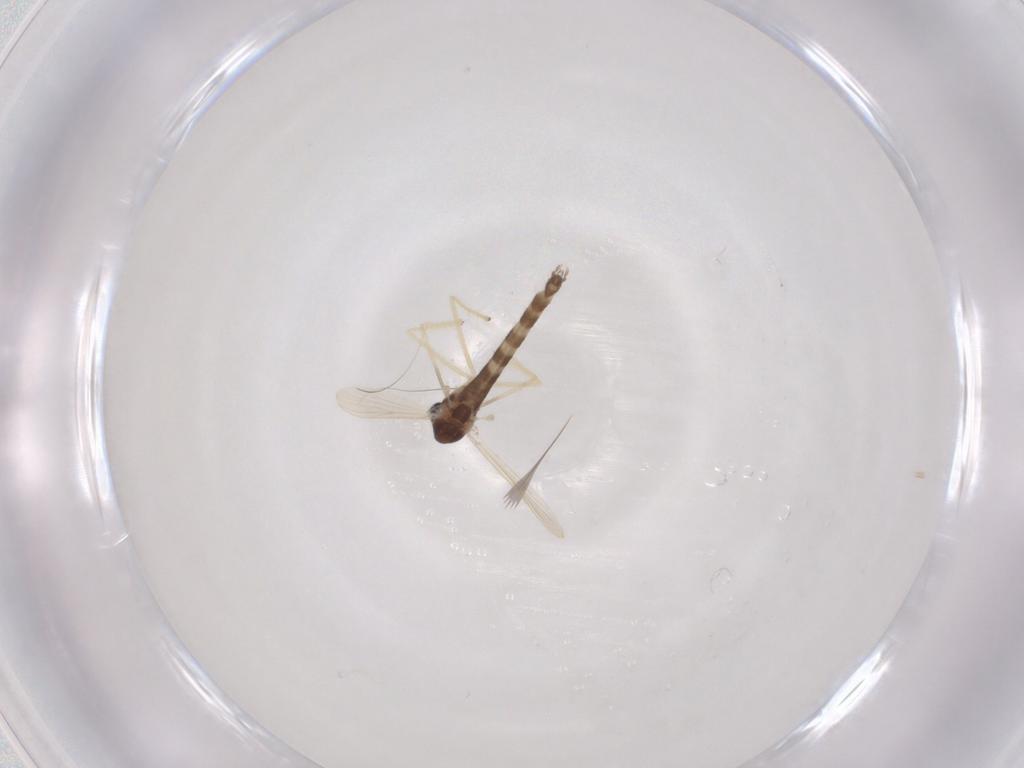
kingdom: Animalia
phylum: Arthropoda
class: Insecta
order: Diptera
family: Chironomidae
